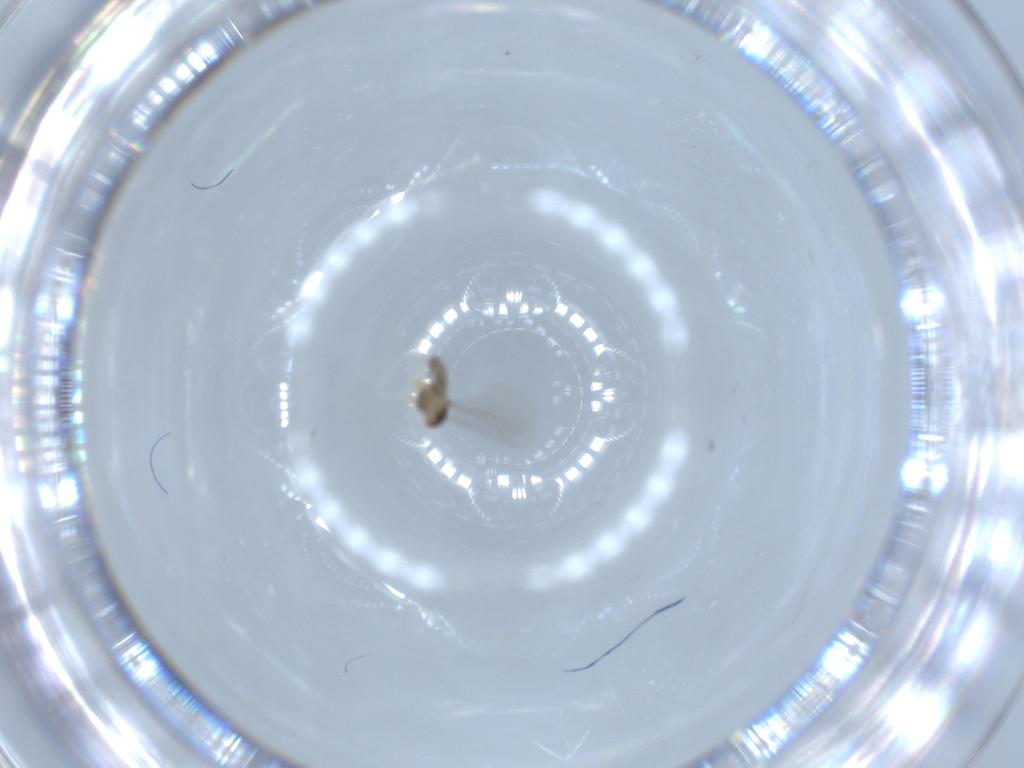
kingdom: Animalia
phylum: Arthropoda
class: Insecta
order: Diptera
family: Cecidomyiidae
